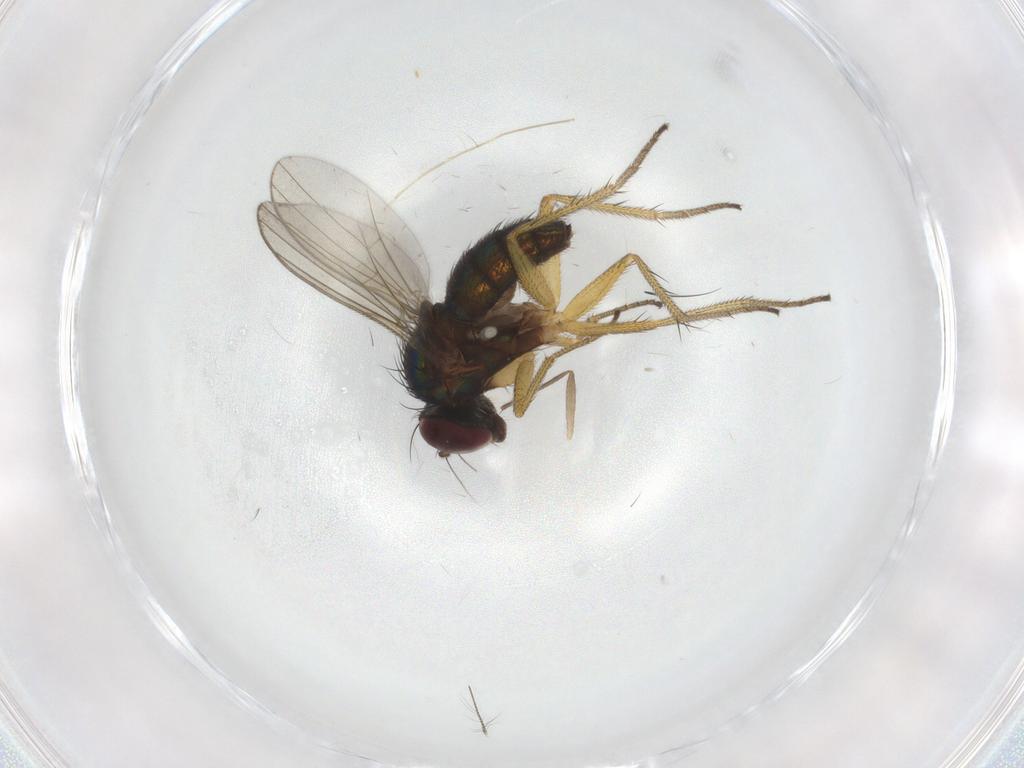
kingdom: Animalia
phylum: Arthropoda
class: Insecta
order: Diptera
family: Dolichopodidae
